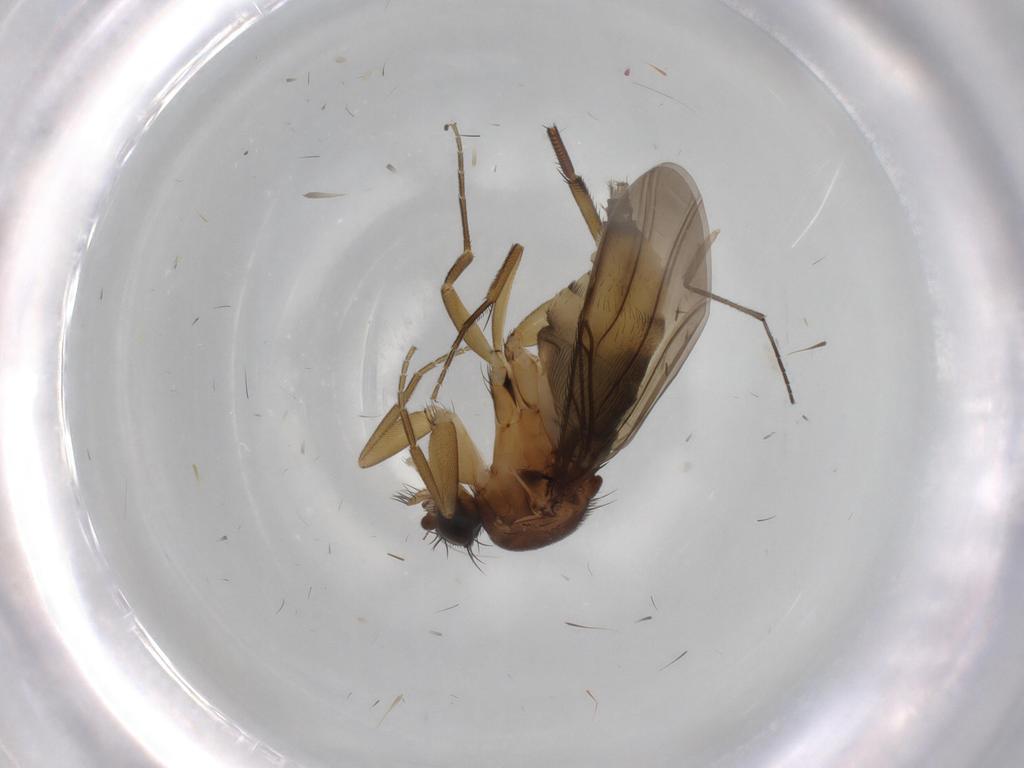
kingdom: Animalia
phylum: Arthropoda
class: Insecta
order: Diptera
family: Phoridae
